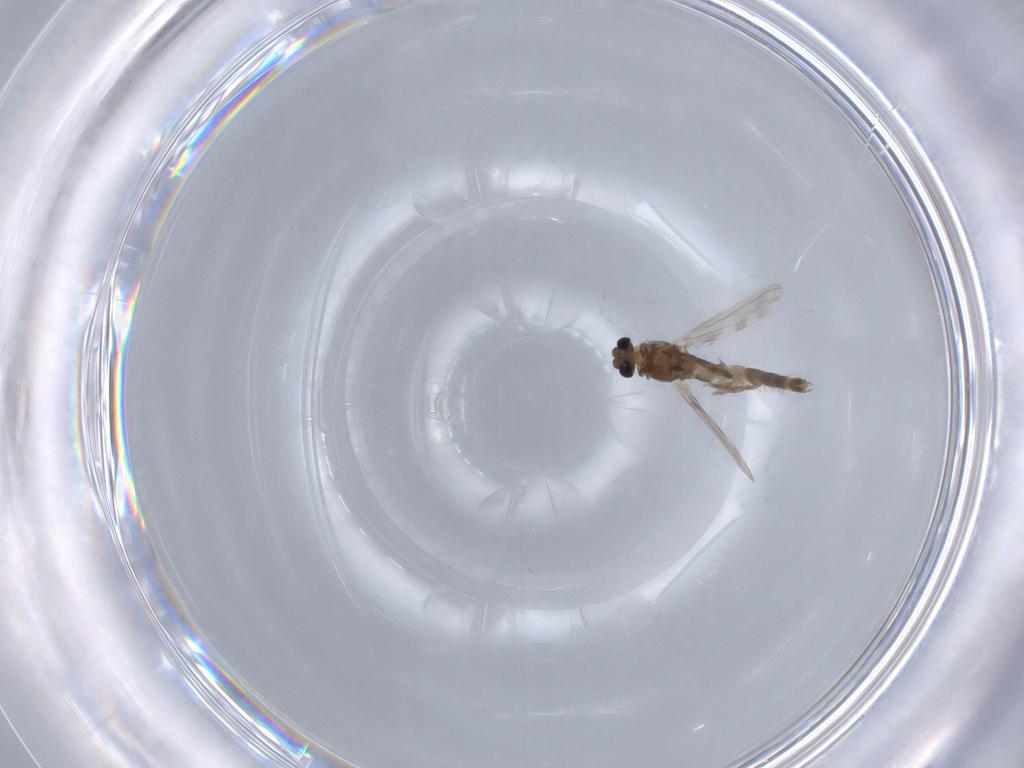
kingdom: Animalia
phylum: Arthropoda
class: Insecta
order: Diptera
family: Chironomidae
